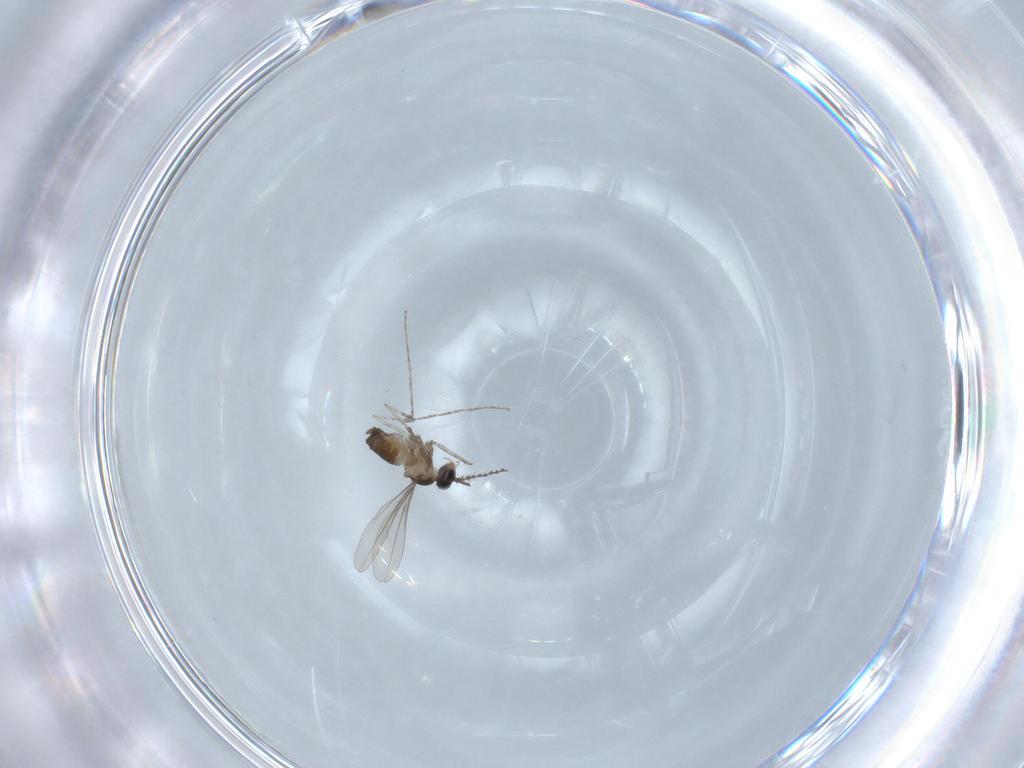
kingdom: Animalia
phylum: Arthropoda
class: Insecta
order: Diptera
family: Cecidomyiidae
